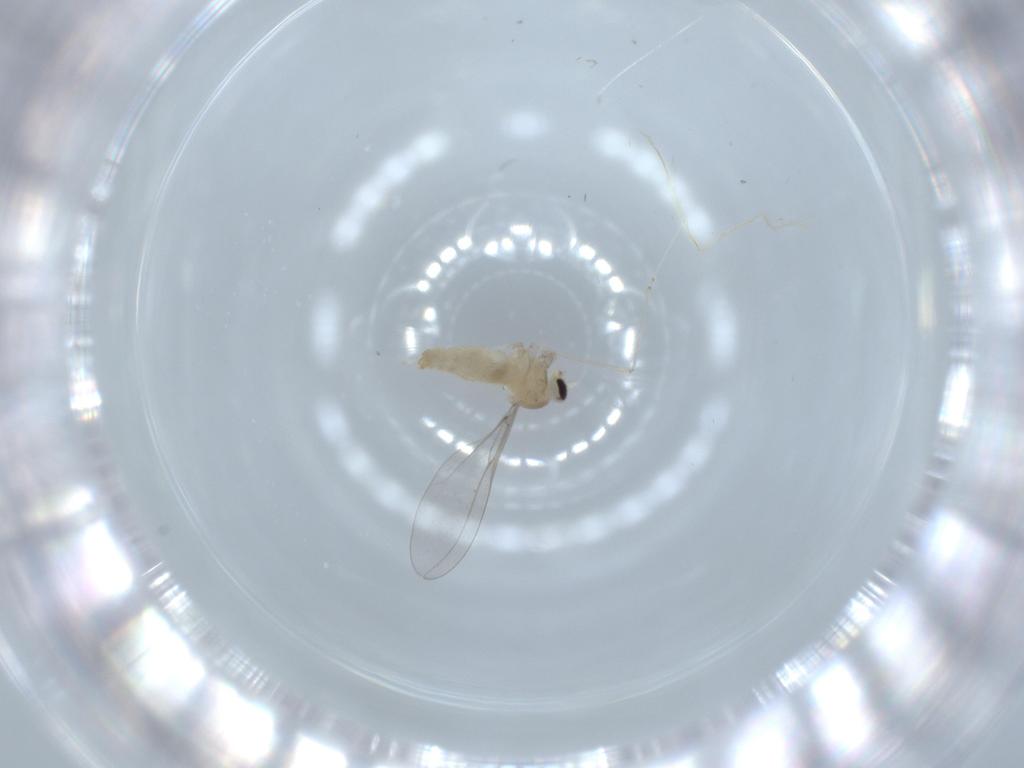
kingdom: Animalia
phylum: Arthropoda
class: Insecta
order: Diptera
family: Cecidomyiidae
